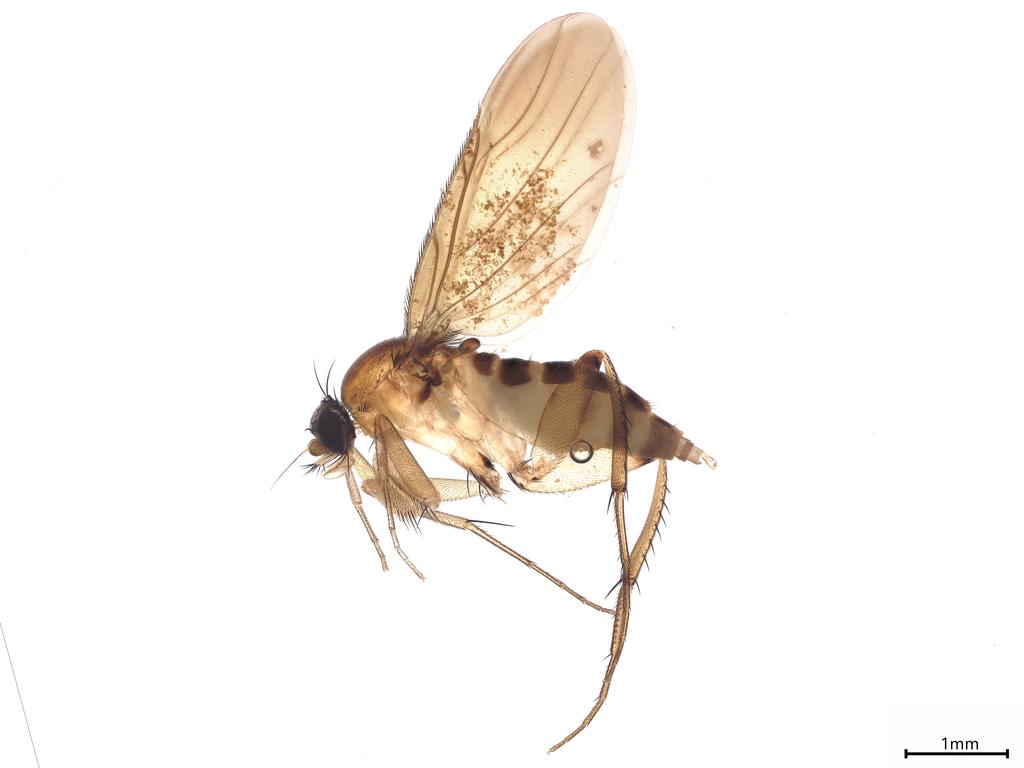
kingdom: Animalia
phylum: Arthropoda
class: Insecta
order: Diptera
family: Phoridae
